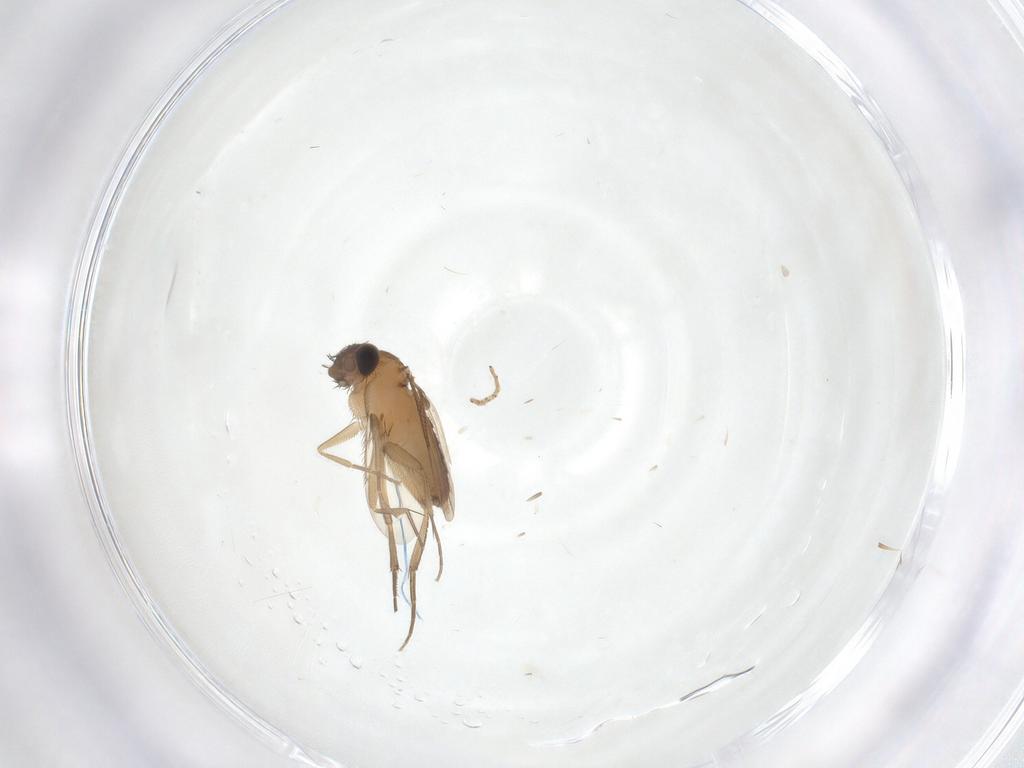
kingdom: Animalia
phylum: Arthropoda
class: Insecta
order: Diptera
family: Phoridae
